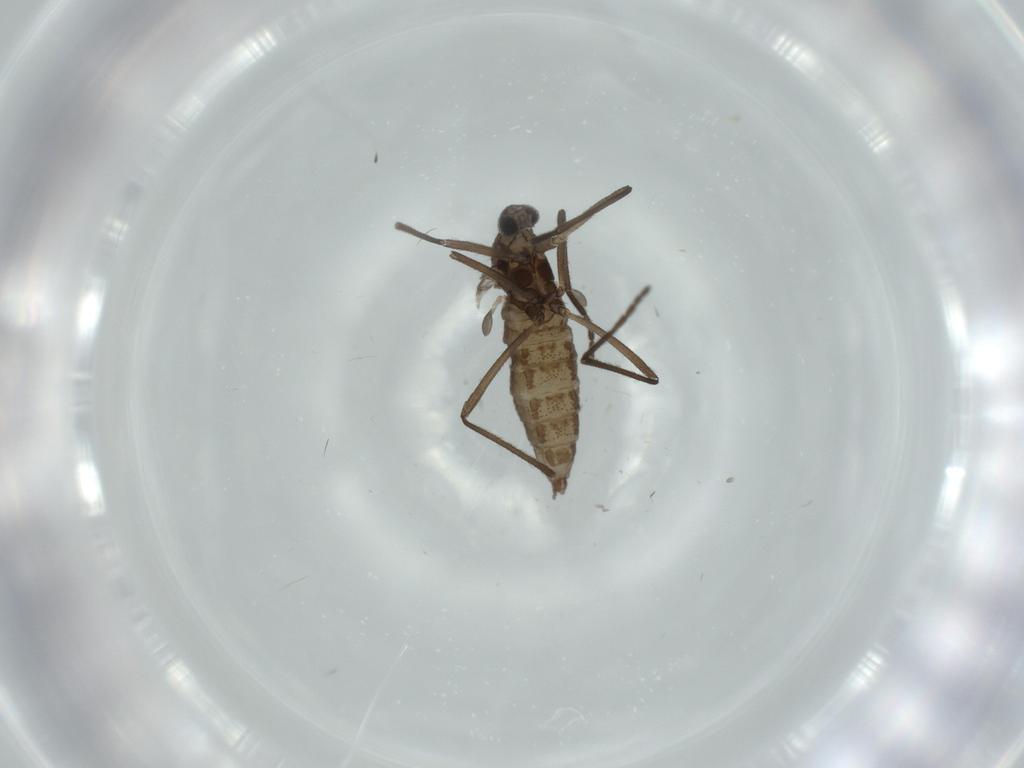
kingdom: Animalia
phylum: Arthropoda
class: Insecta
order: Diptera
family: Cecidomyiidae
